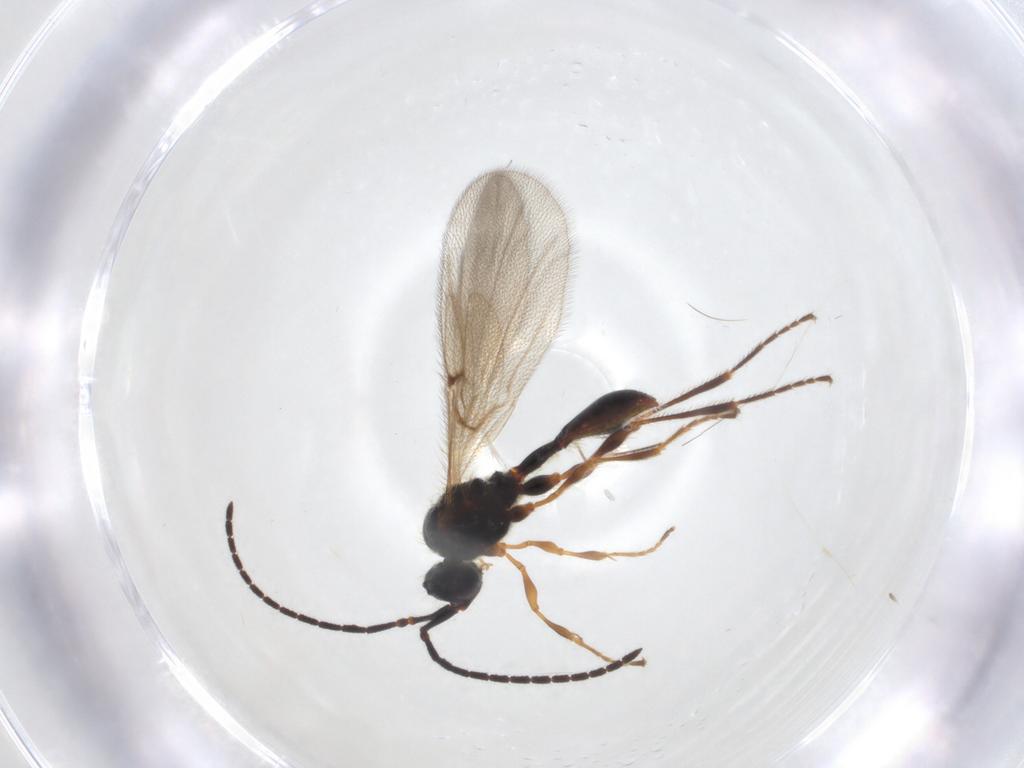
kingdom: Animalia
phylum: Arthropoda
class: Insecta
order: Hymenoptera
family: Diapriidae
